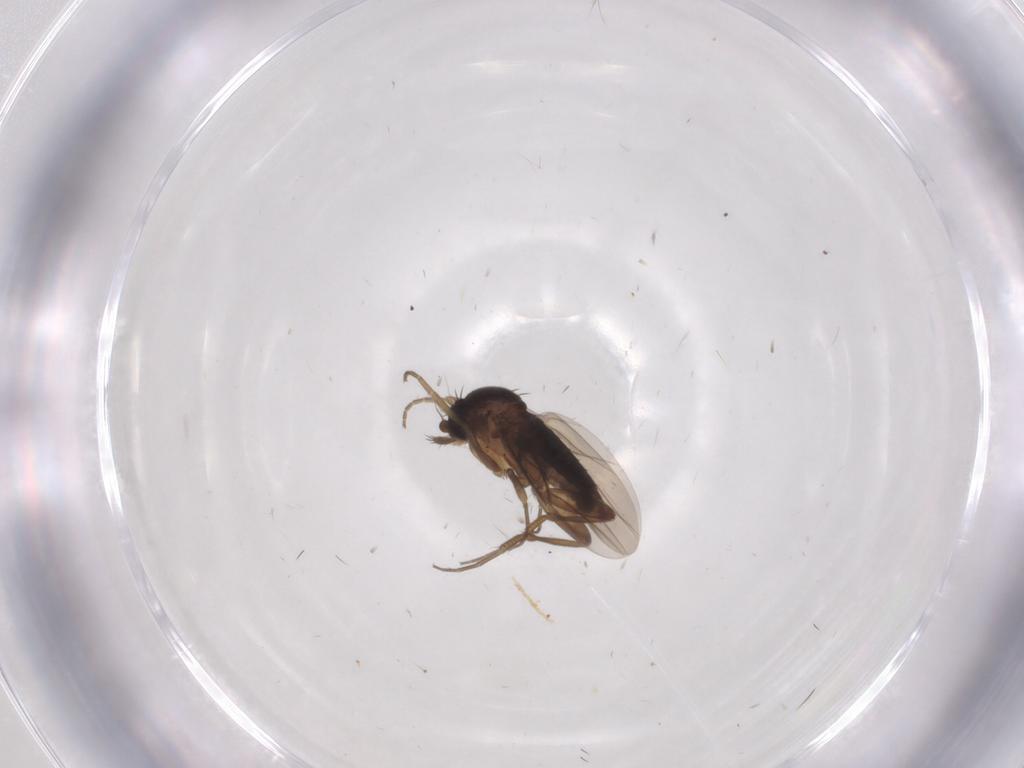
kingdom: Animalia
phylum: Arthropoda
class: Insecta
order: Diptera
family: Phoridae
